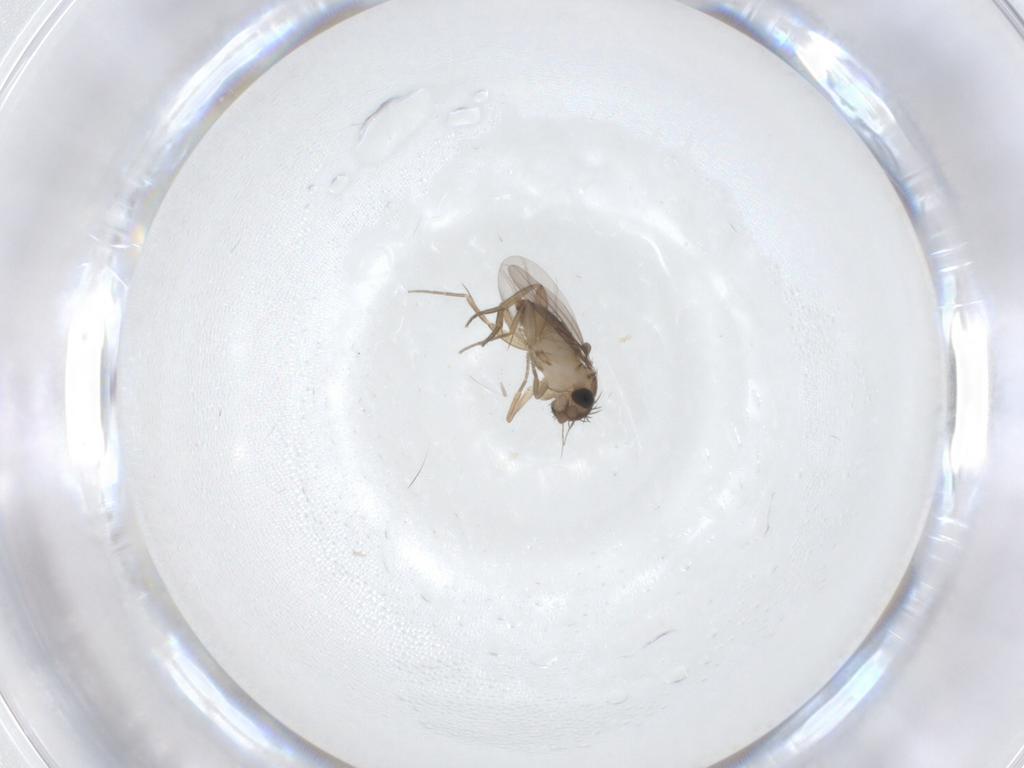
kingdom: Animalia
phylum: Arthropoda
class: Insecta
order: Diptera
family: Phoridae
